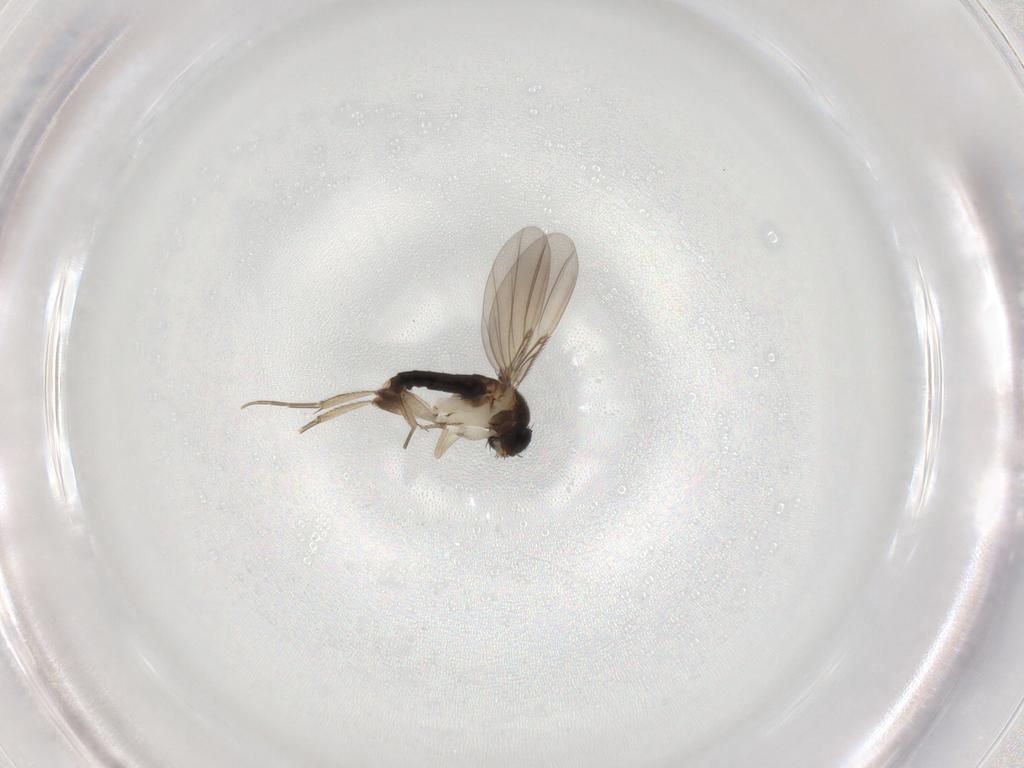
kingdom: Animalia
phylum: Arthropoda
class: Insecta
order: Diptera
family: Phoridae
